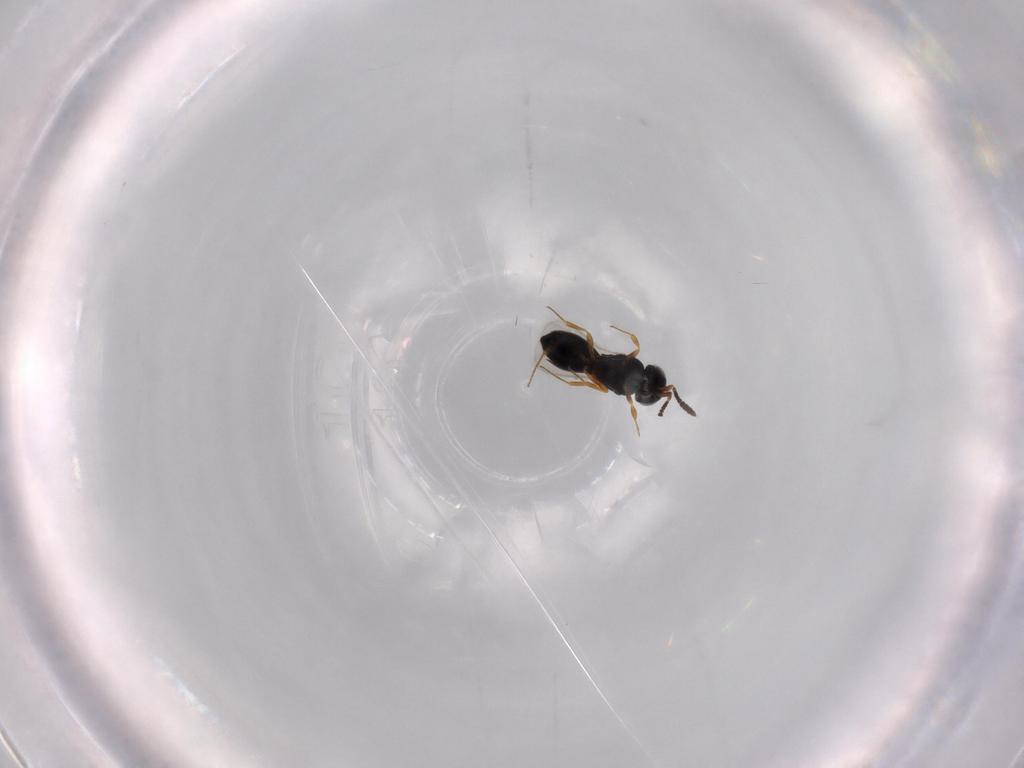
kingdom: Animalia
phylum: Arthropoda
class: Insecta
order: Hymenoptera
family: Scelionidae
